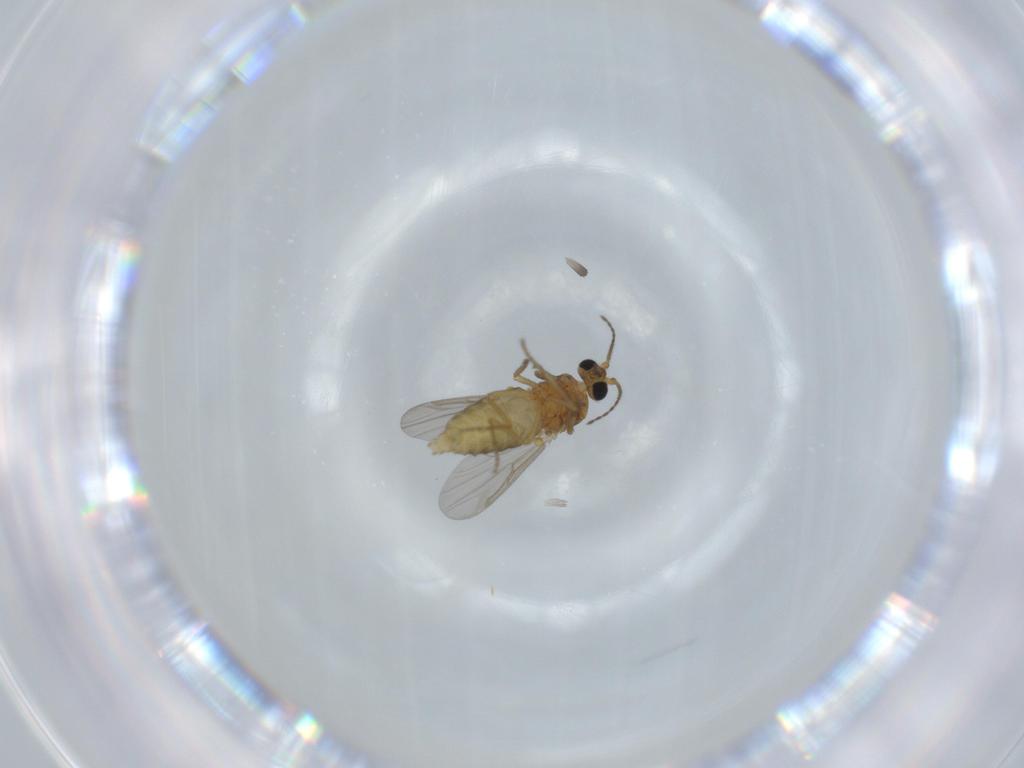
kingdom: Animalia
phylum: Arthropoda
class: Insecta
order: Diptera
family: Ceratopogonidae
